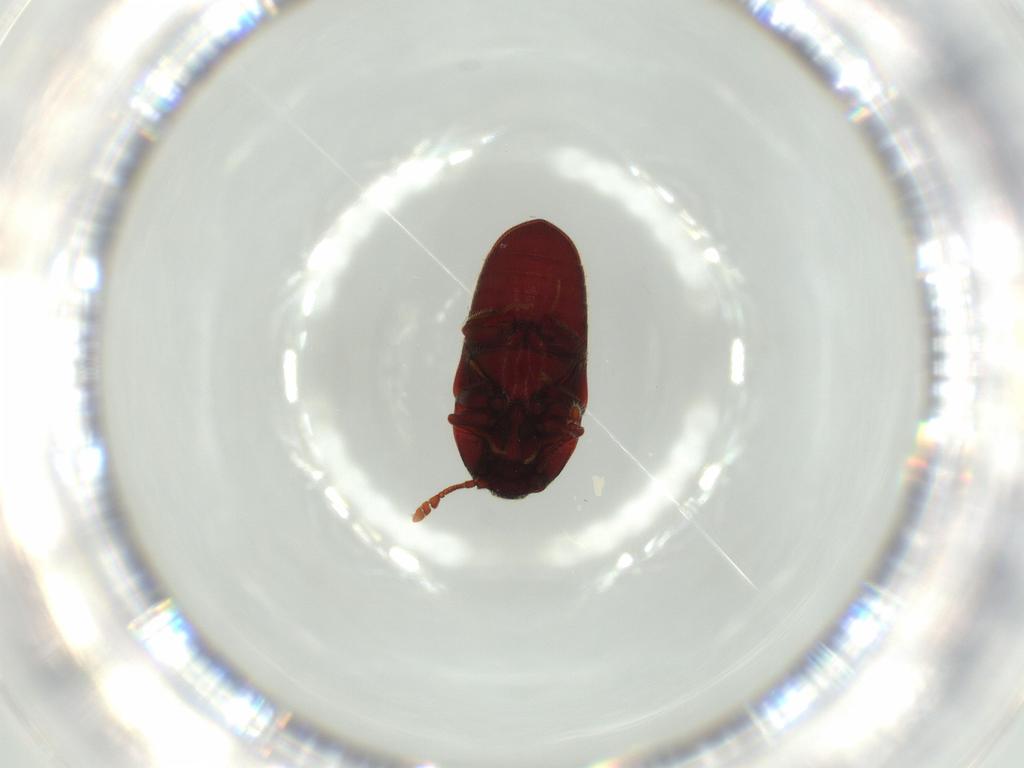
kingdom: Animalia
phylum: Arthropoda
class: Insecta
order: Coleoptera
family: Throscidae
